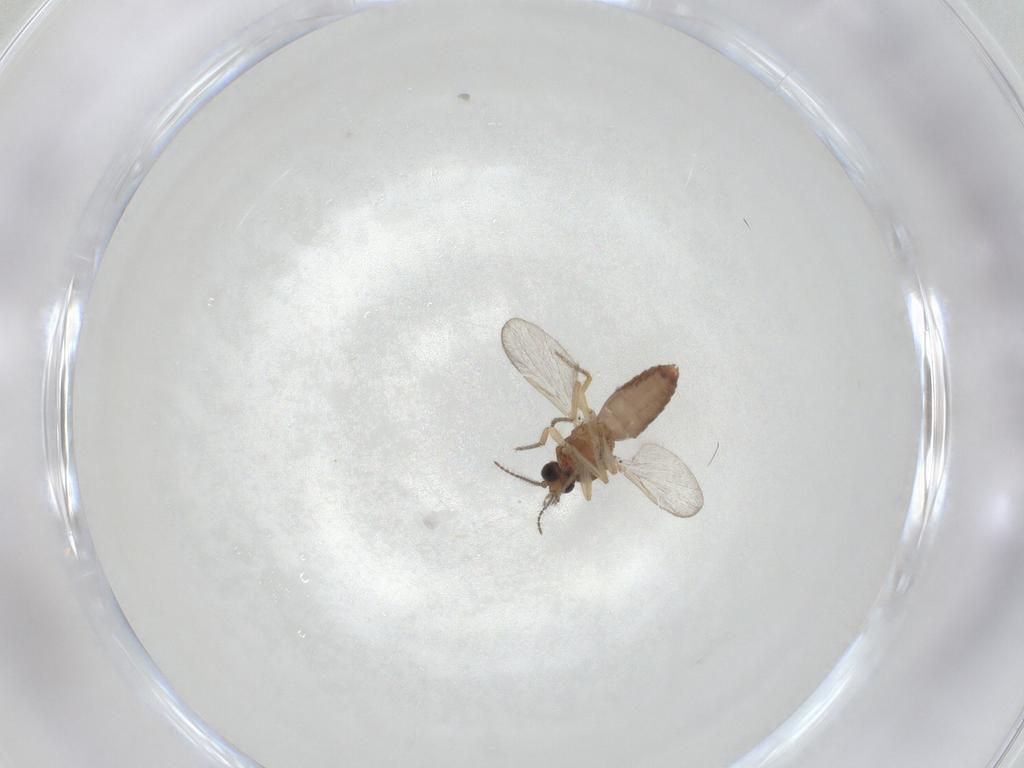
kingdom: Animalia
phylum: Arthropoda
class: Insecta
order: Diptera
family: Ceratopogonidae
